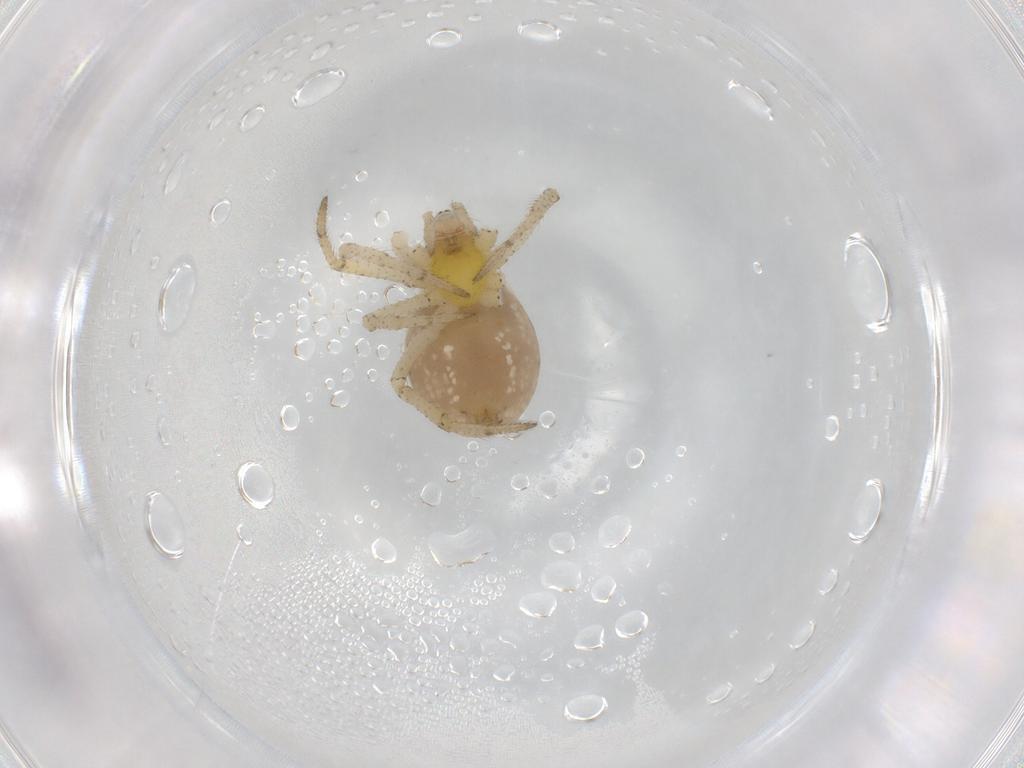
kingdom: Animalia
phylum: Arthropoda
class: Arachnida
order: Araneae
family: Theridiidae
